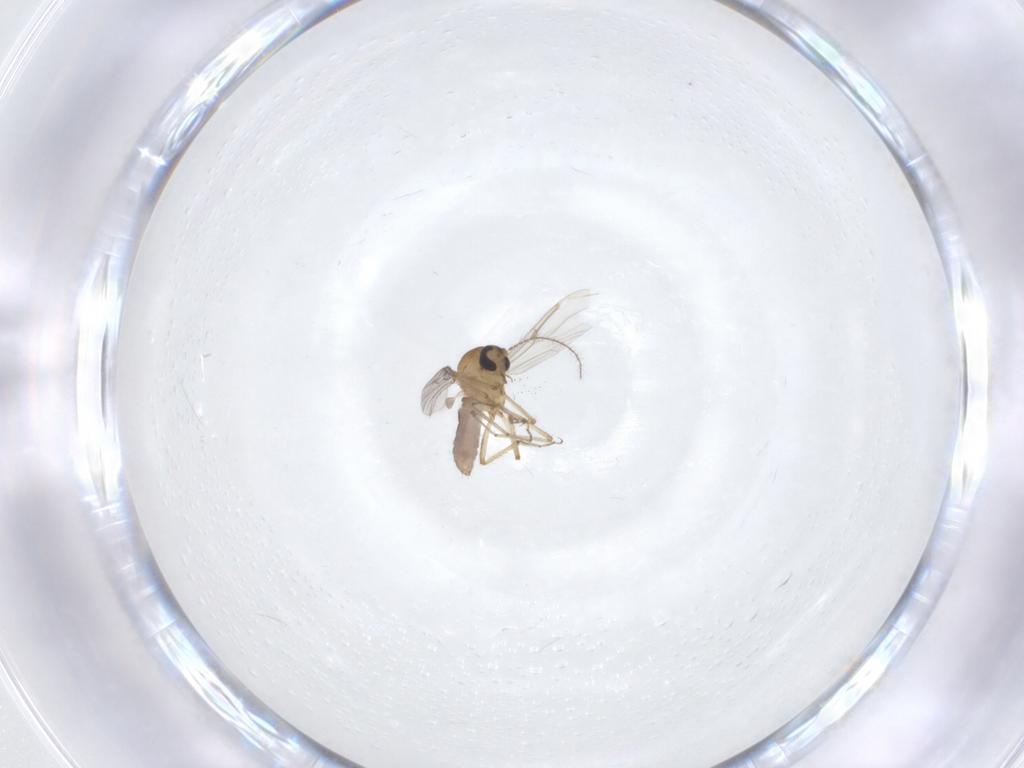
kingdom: Animalia
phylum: Arthropoda
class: Insecta
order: Diptera
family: Ceratopogonidae
